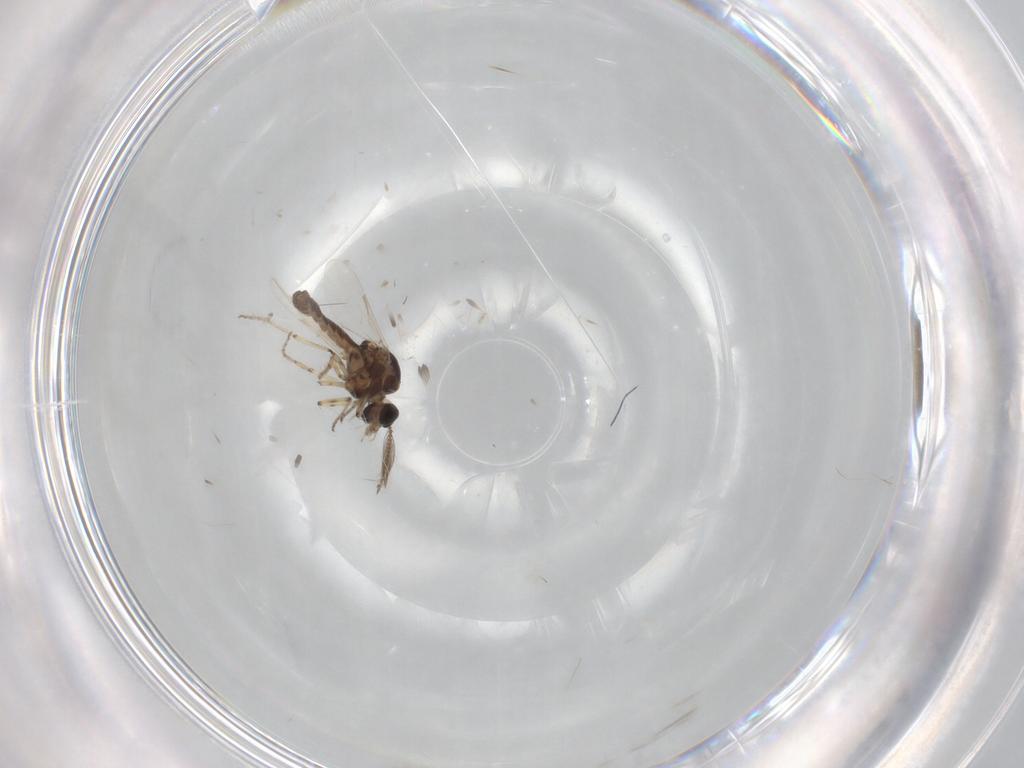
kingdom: Animalia
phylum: Arthropoda
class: Insecta
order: Diptera
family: Ceratopogonidae
